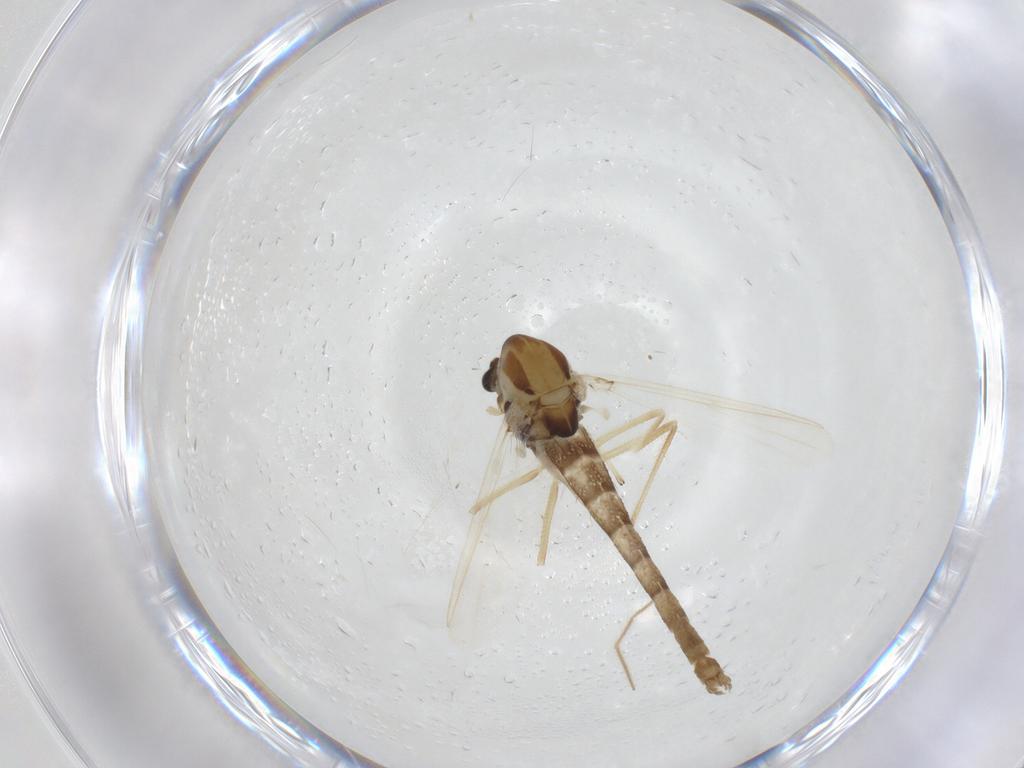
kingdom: Animalia
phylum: Arthropoda
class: Insecta
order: Diptera
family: Chironomidae
